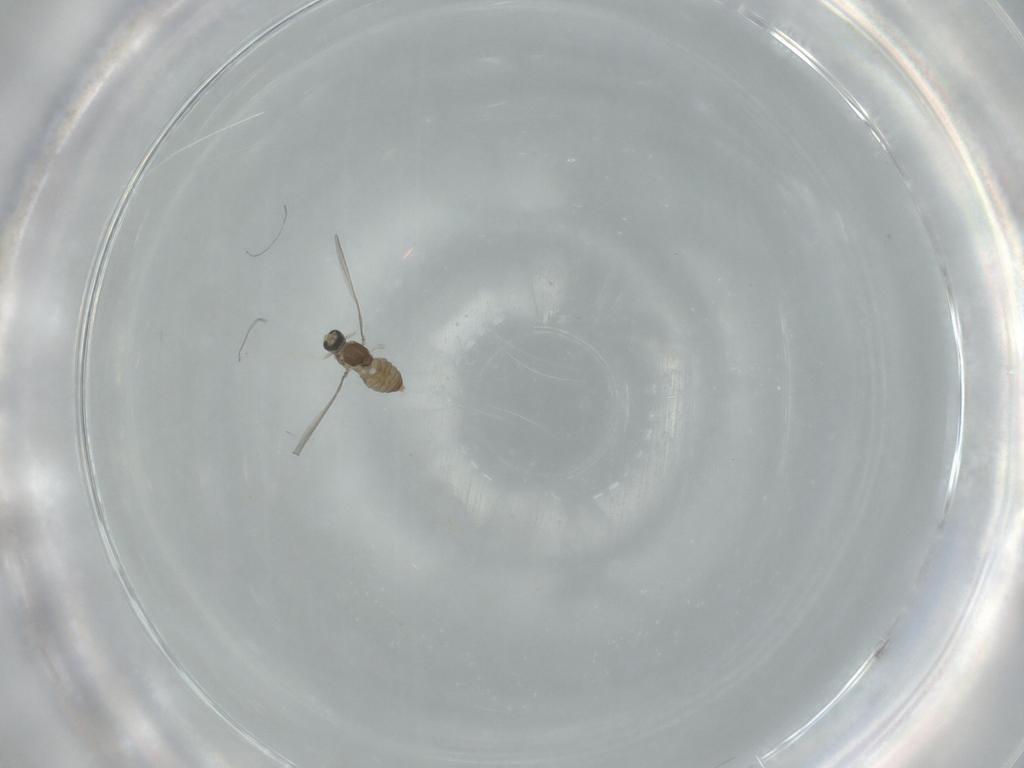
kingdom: Animalia
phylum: Arthropoda
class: Insecta
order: Diptera
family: Cecidomyiidae
